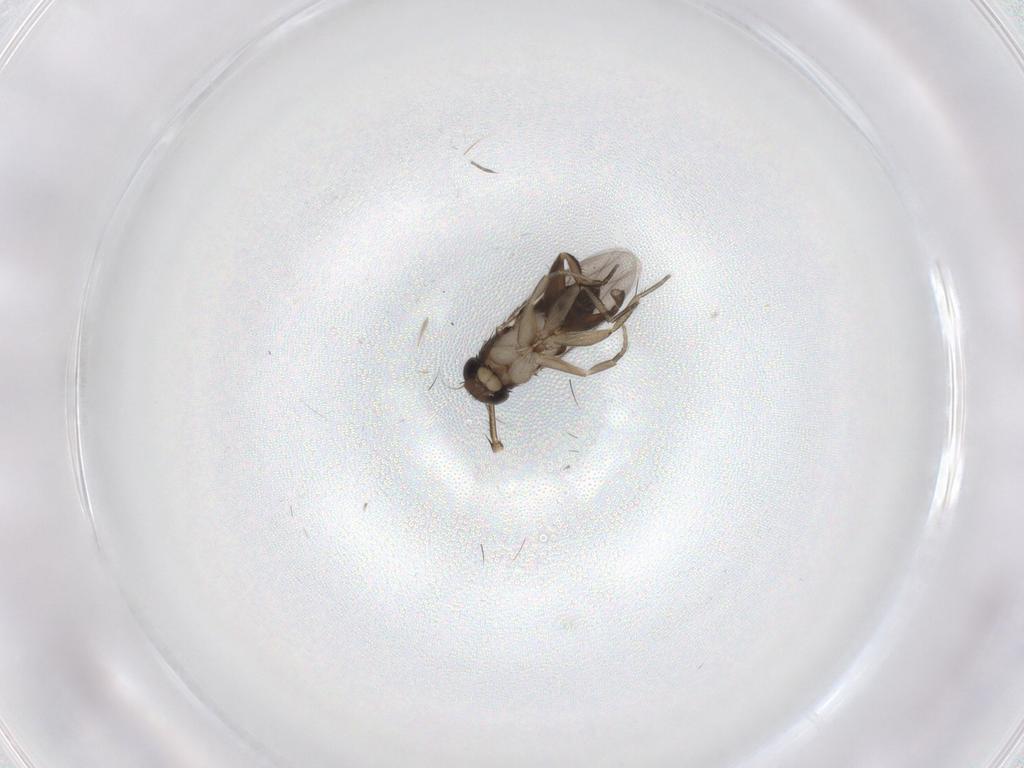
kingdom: Animalia
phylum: Arthropoda
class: Insecta
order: Diptera
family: Phoridae
